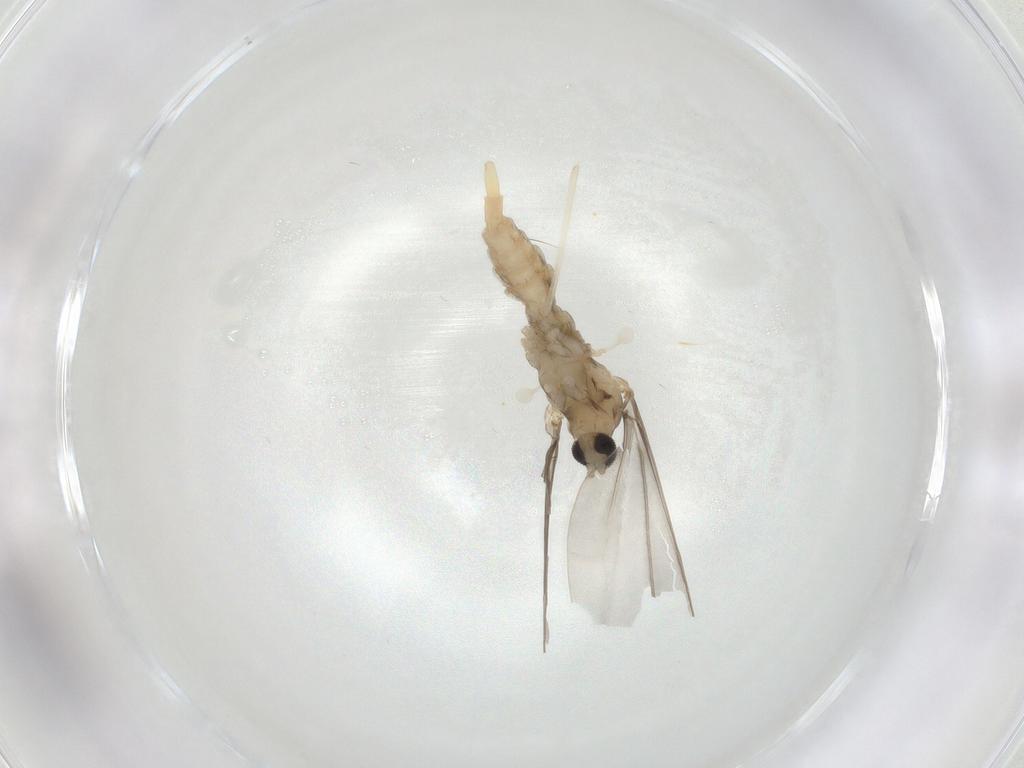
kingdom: Animalia
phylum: Arthropoda
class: Insecta
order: Diptera
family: Cecidomyiidae
